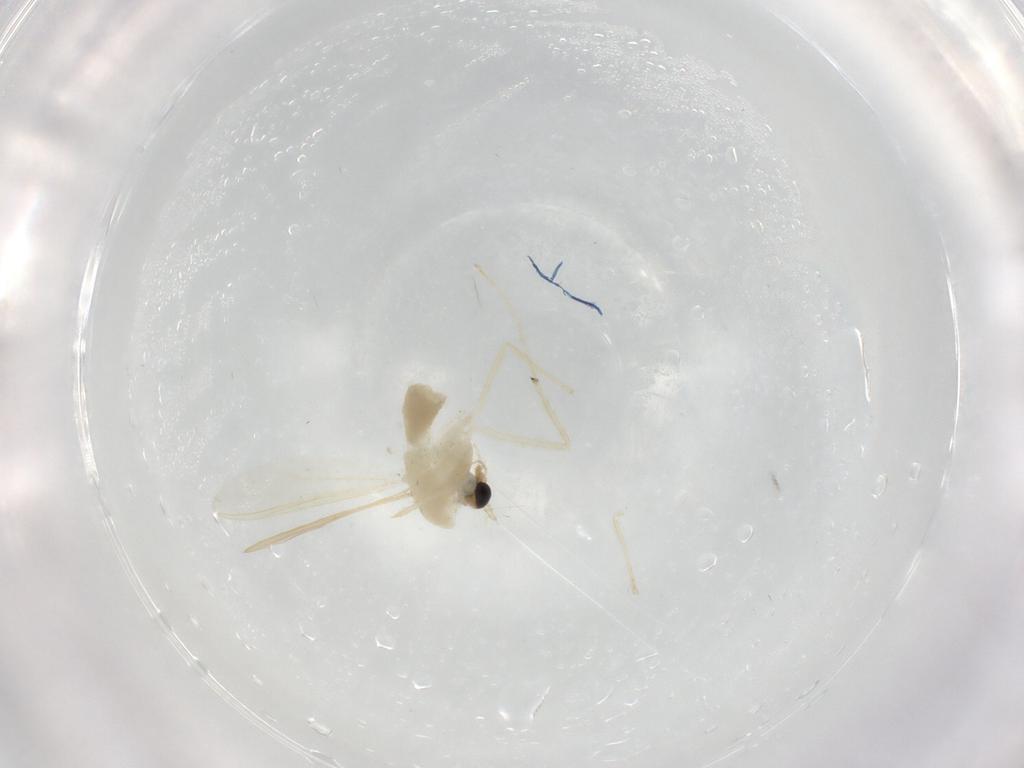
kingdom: Animalia
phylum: Arthropoda
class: Insecta
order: Diptera
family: Chironomidae
